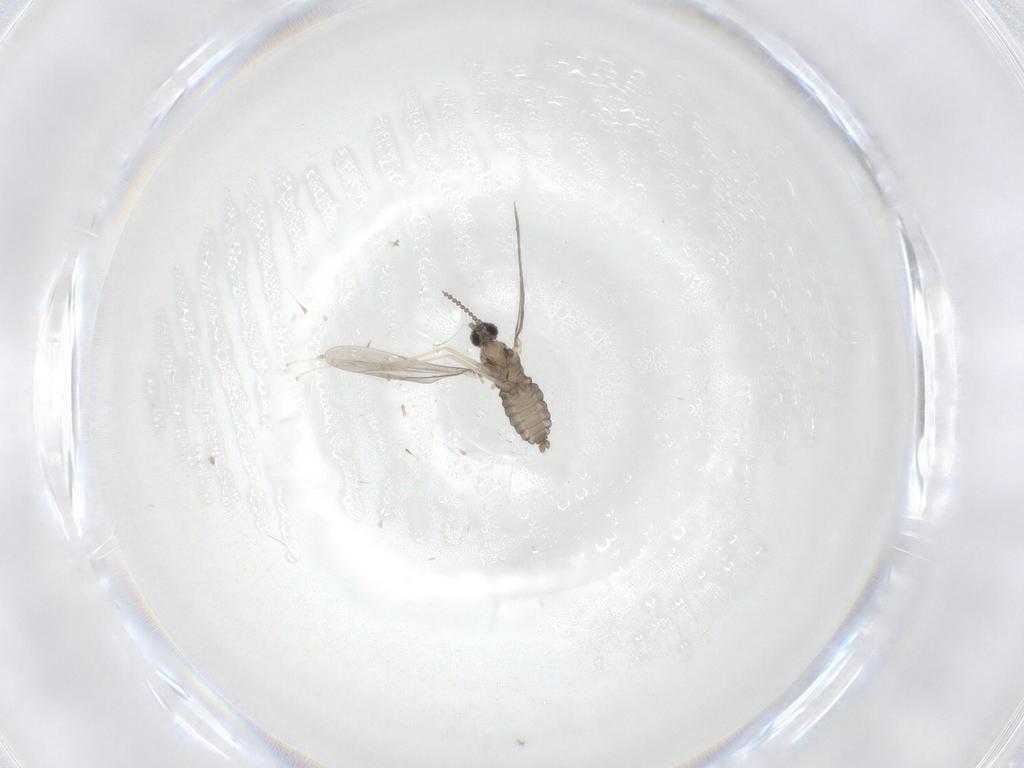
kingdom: Animalia
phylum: Arthropoda
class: Insecta
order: Diptera
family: Cecidomyiidae
